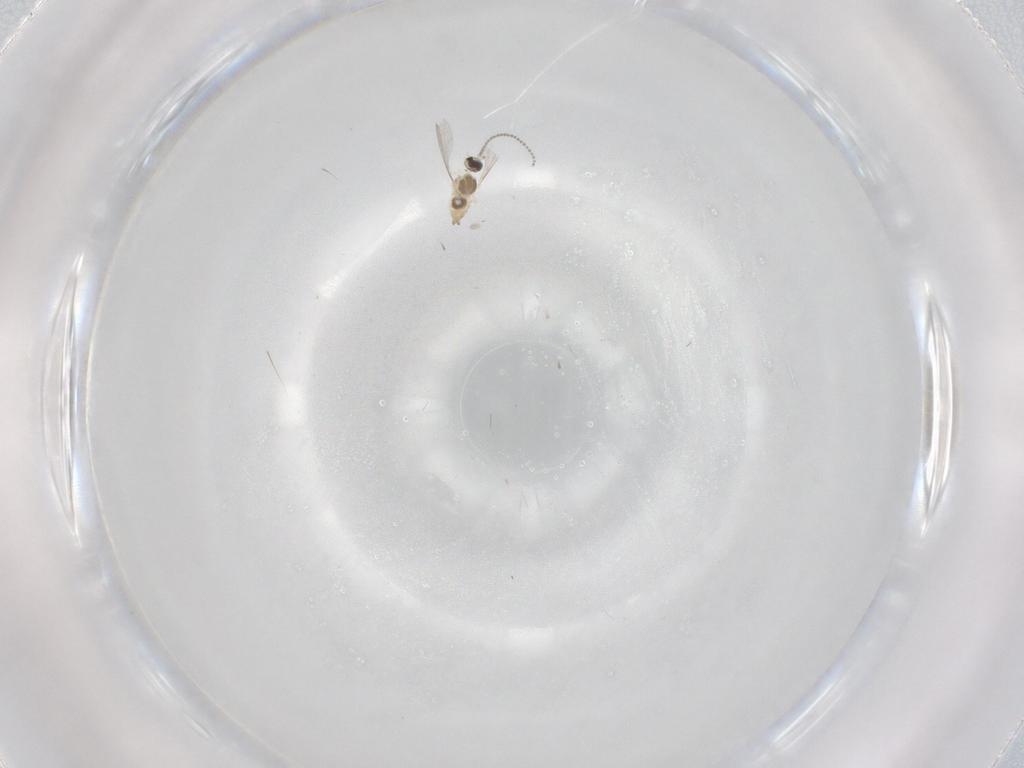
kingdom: Animalia
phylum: Arthropoda
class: Insecta
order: Diptera
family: Cecidomyiidae
